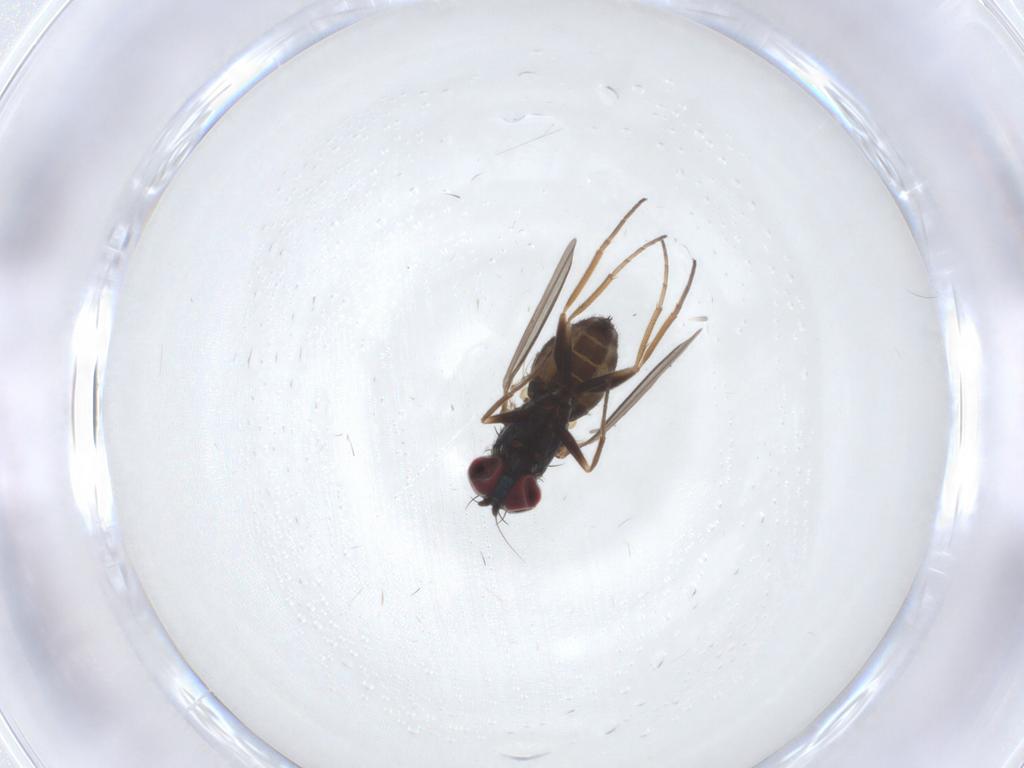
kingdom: Animalia
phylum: Arthropoda
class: Insecta
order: Diptera
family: Dolichopodidae
